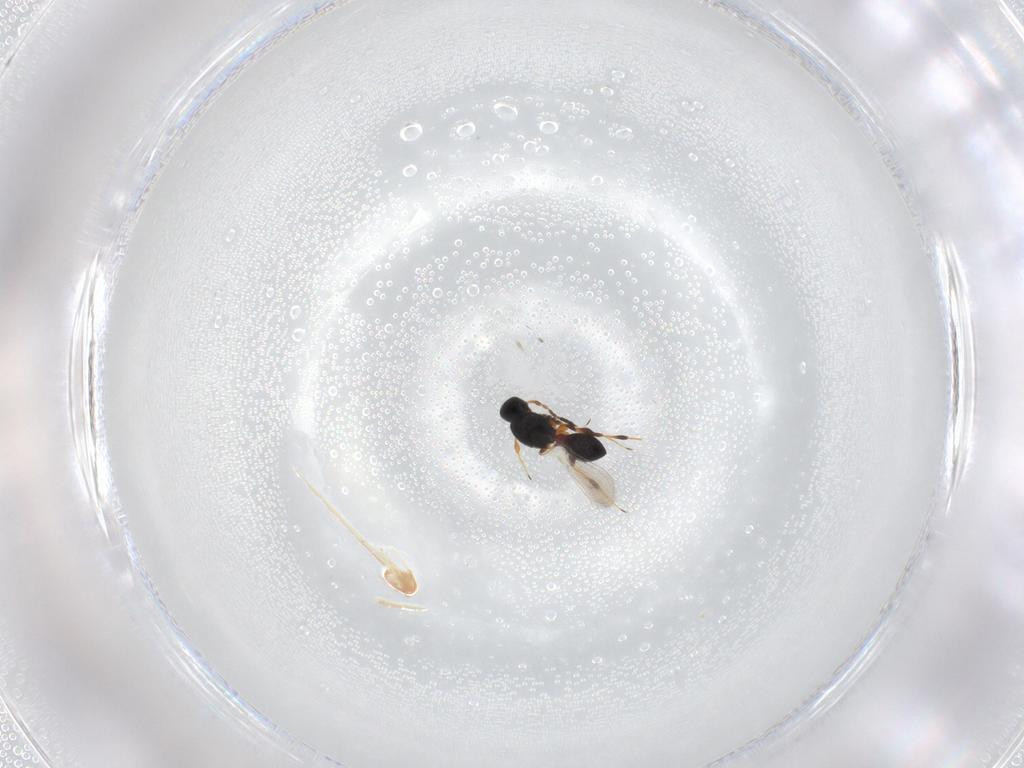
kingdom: Animalia
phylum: Arthropoda
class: Insecta
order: Hymenoptera
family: Platygastridae
